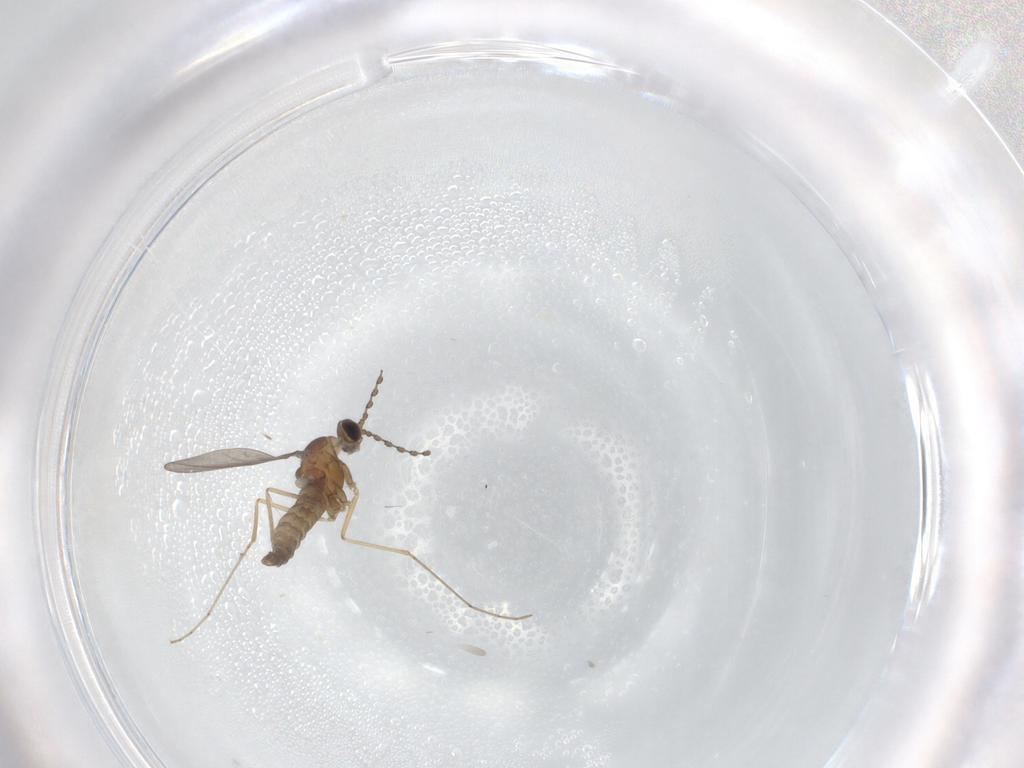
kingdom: Animalia
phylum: Arthropoda
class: Insecta
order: Diptera
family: Cecidomyiidae
